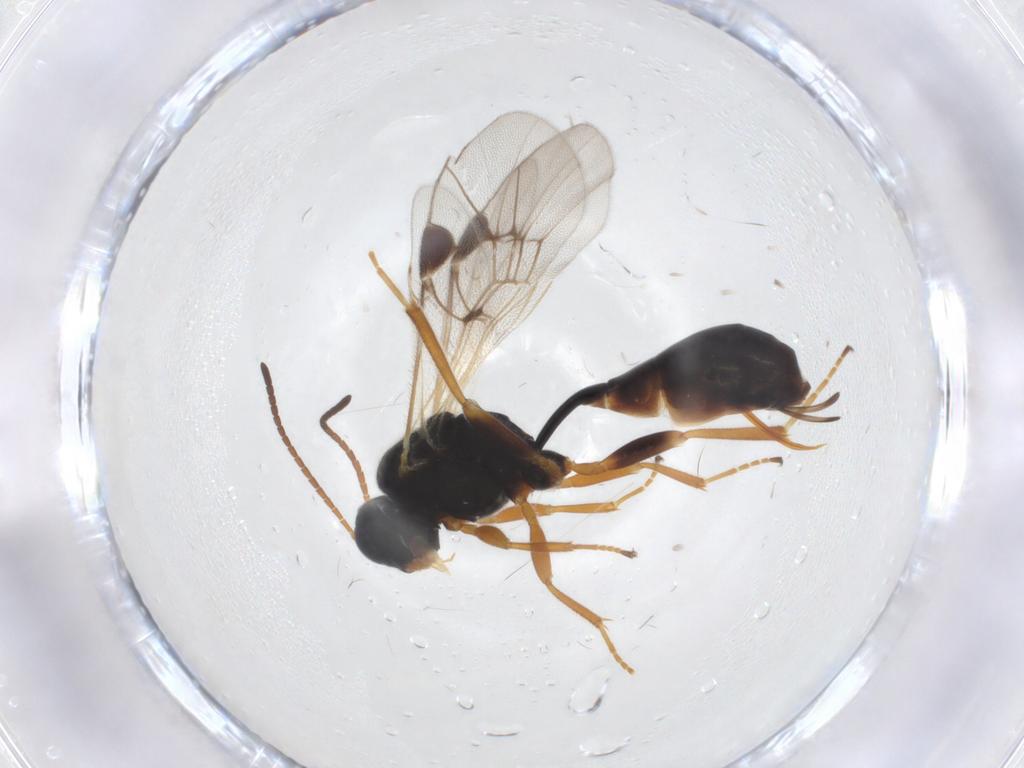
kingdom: Animalia
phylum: Arthropoda
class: Insecta
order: Hymenoptera
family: Ichneumonidae
